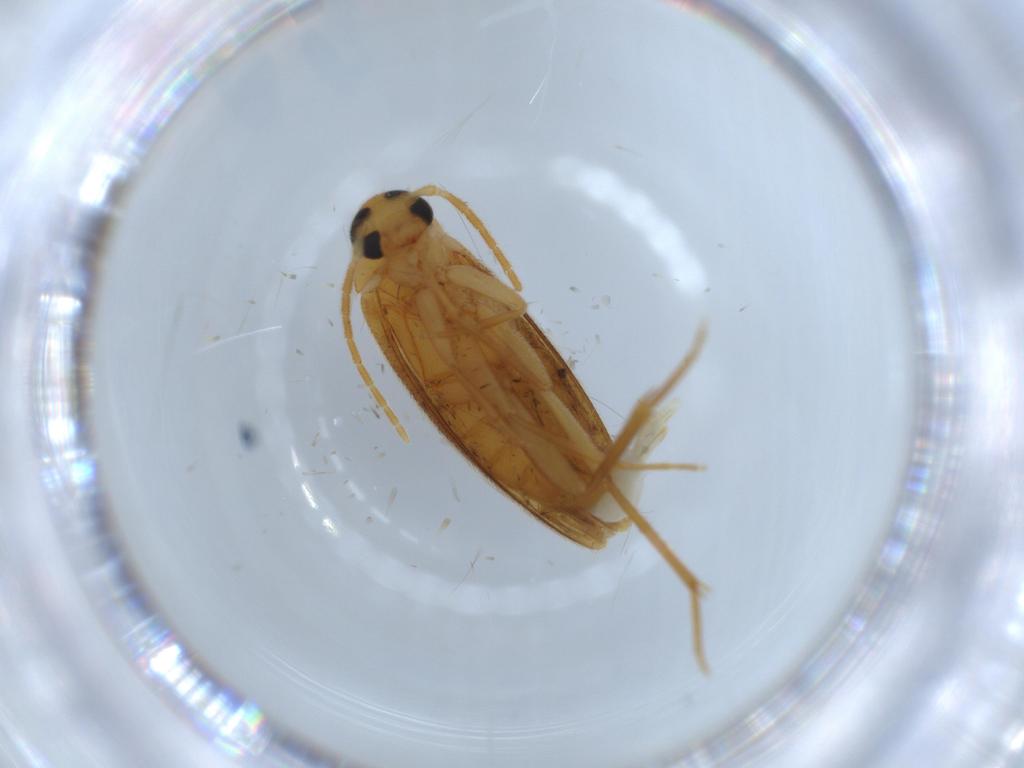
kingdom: Animalia
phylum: Arthropoda
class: Insecta
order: Coleoptera
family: Scraptiidae
